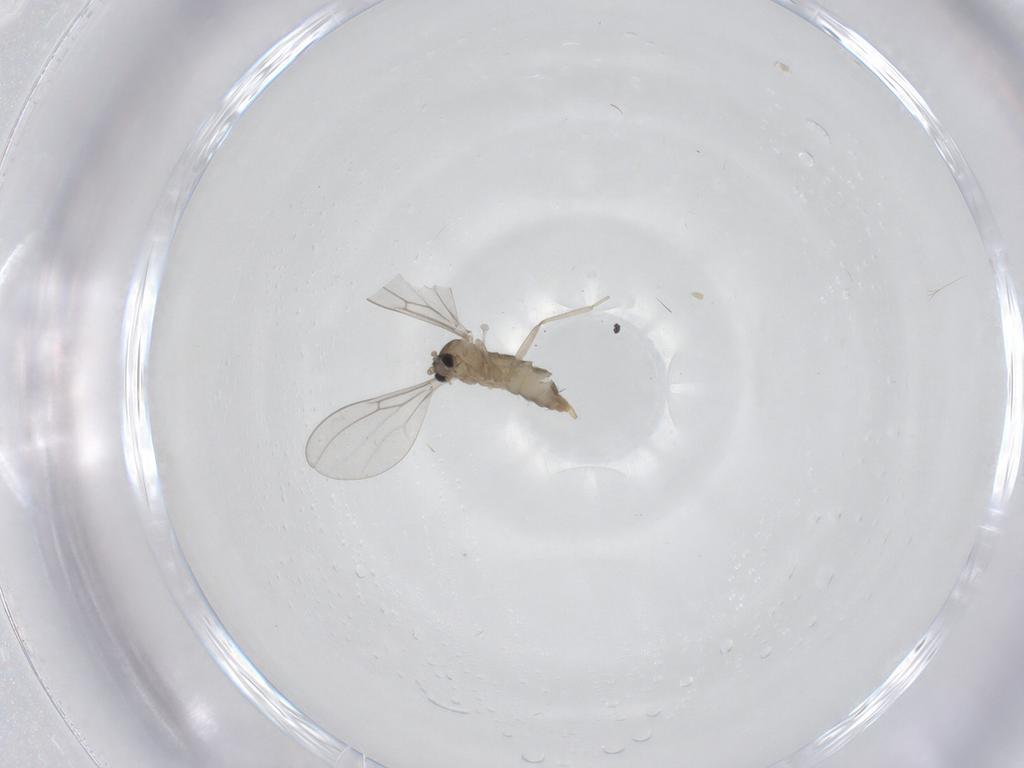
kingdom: Animalia
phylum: Arthropoda
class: Insecta
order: Diptera
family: Cecidomyiidae
